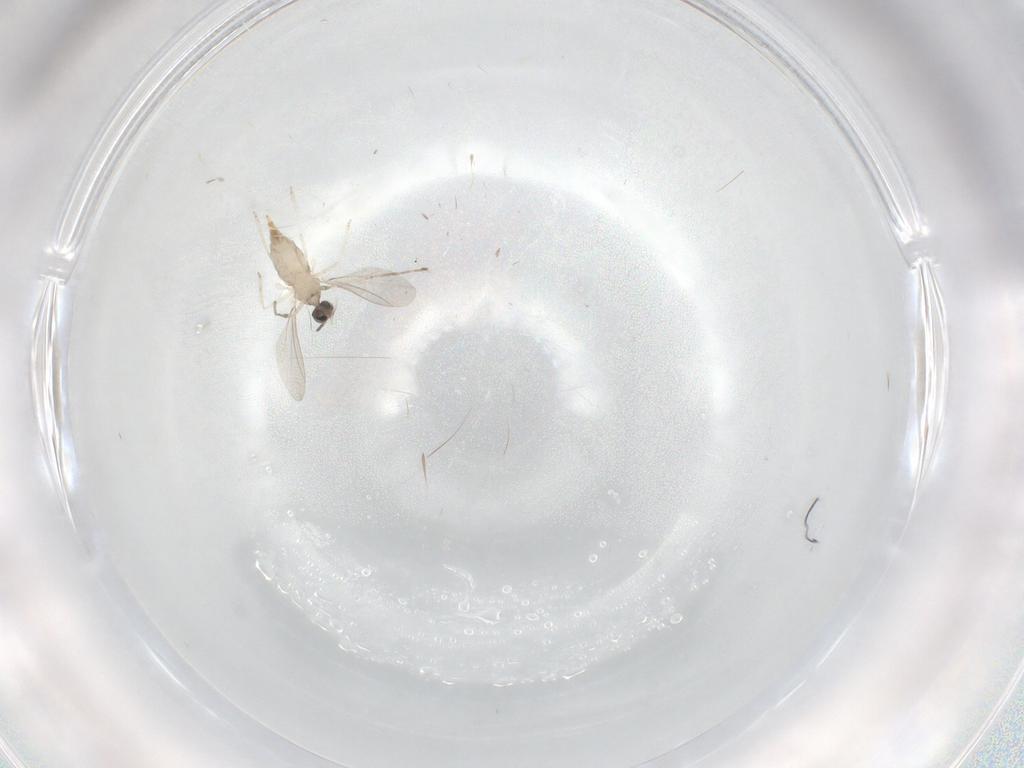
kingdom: Animalia
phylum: Arthropoda
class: Insecta
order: Diptera
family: Cecidomyiidae
